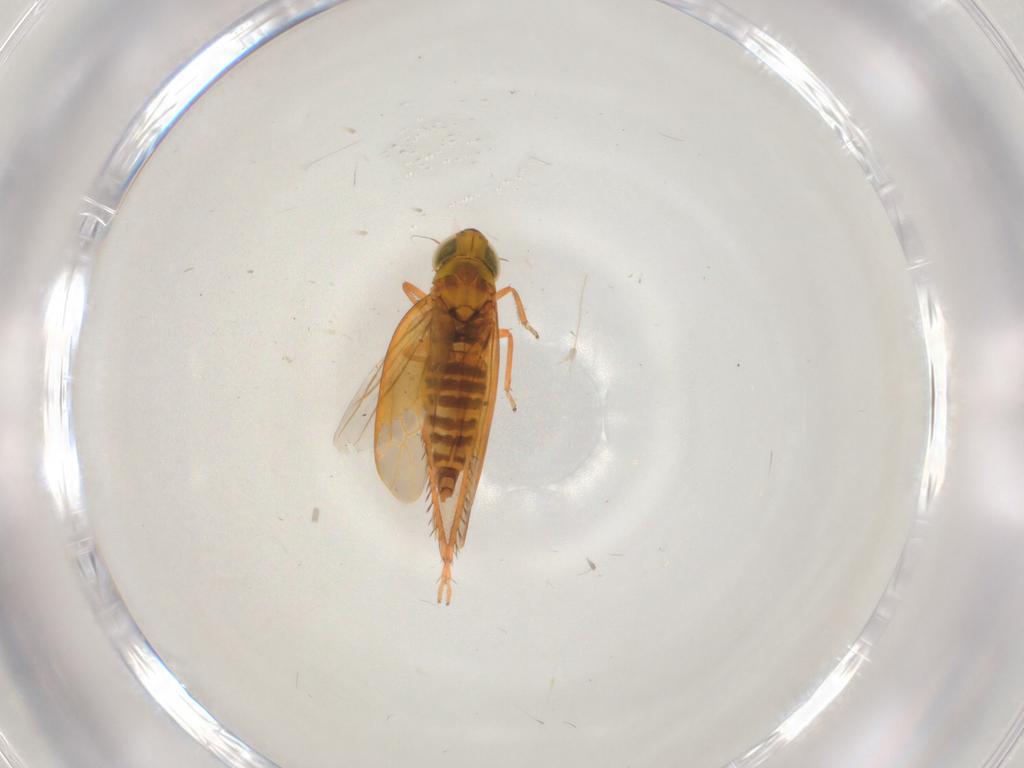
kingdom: Animalia
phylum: Arthropoda
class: Insecta
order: Hemiptera
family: Cicadellidae
